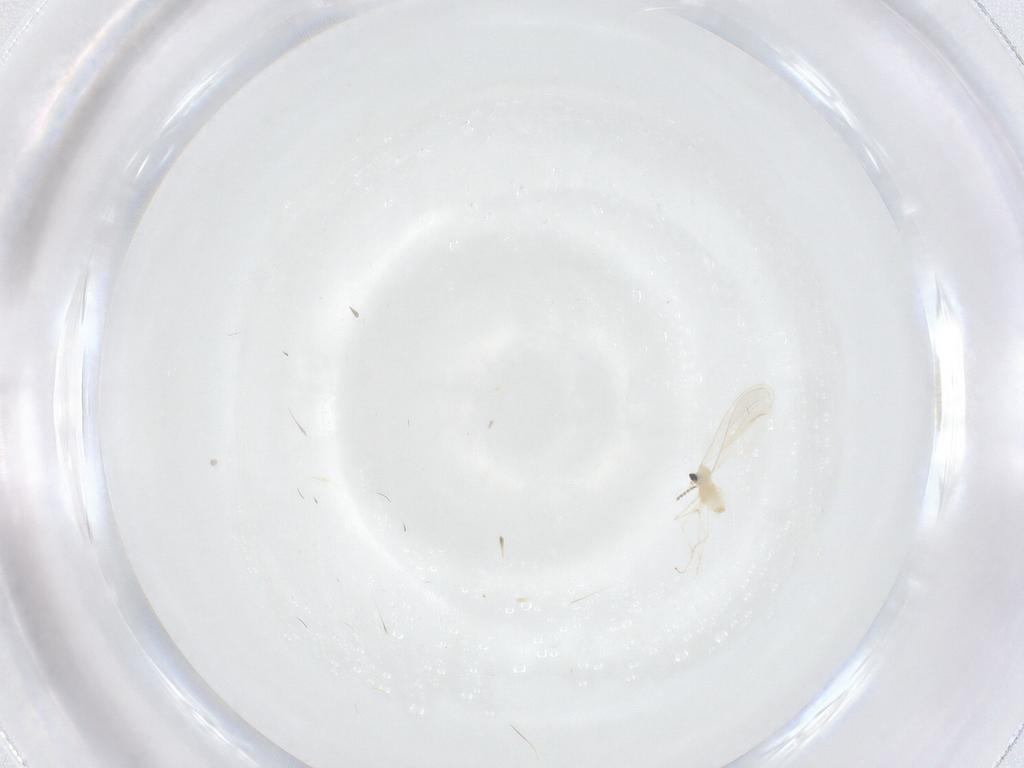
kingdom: Animalia
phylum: Arthropoda
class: Insecta
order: Diptera
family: Cecidomyiidae
